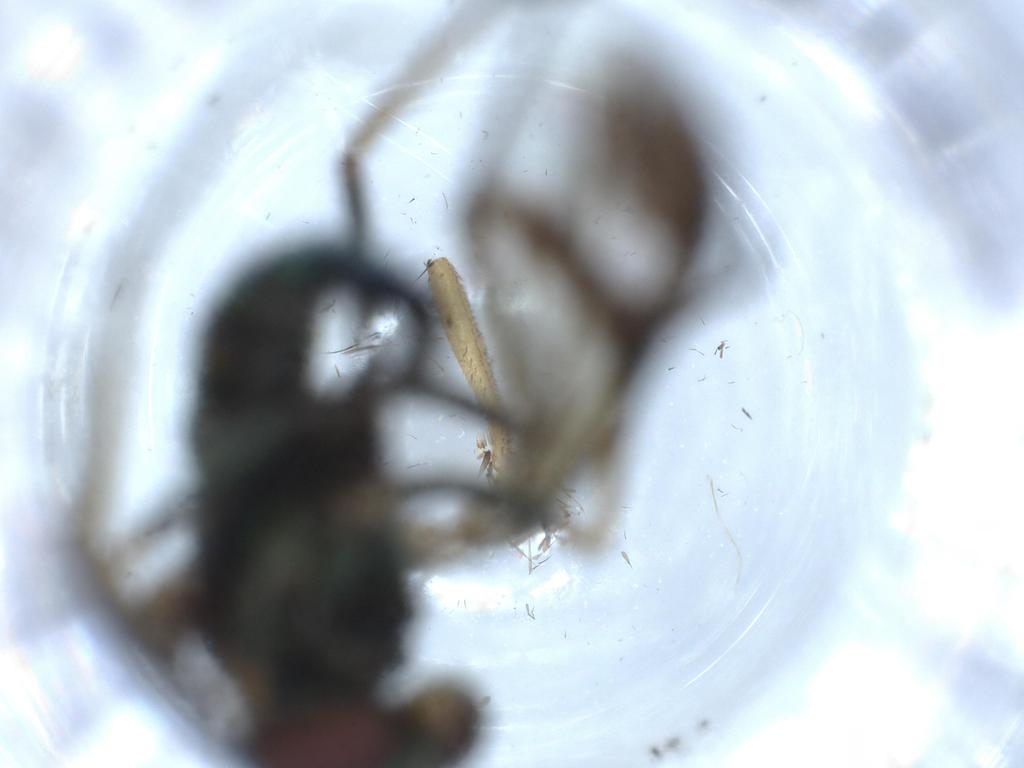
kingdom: Animalia
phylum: Arthropoda
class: Insecta
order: Diptera
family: Dolichopodidae
